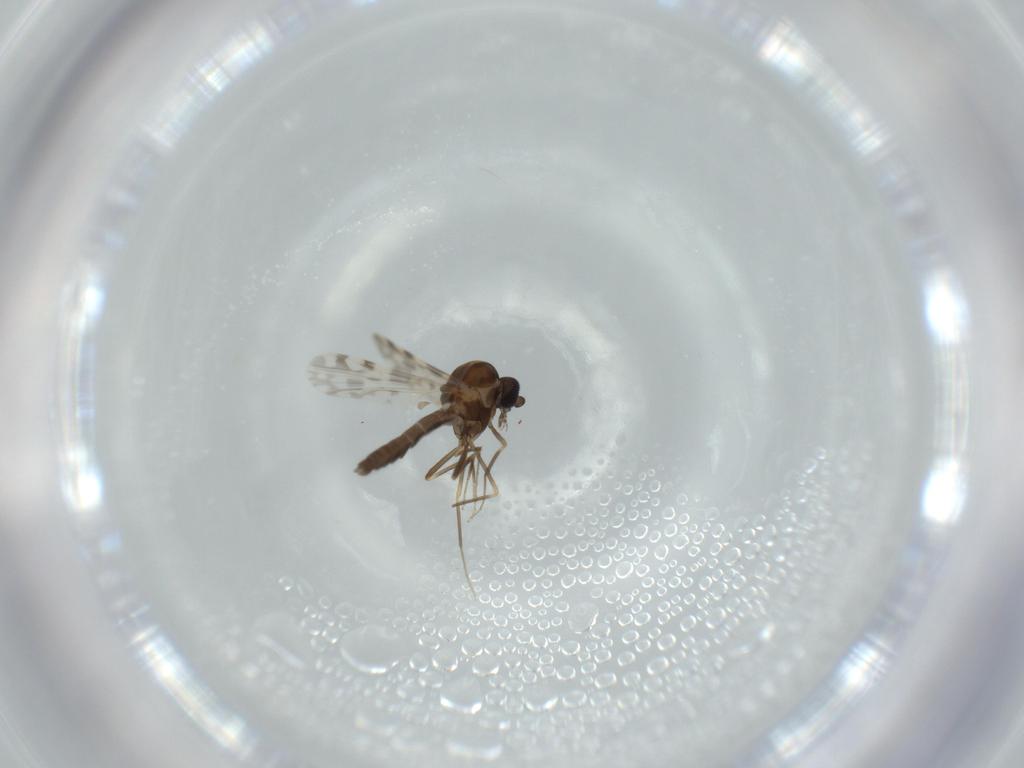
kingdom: Animalia
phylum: Arthropoda
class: Insecta
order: Diptera
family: Ceratopogonidae
